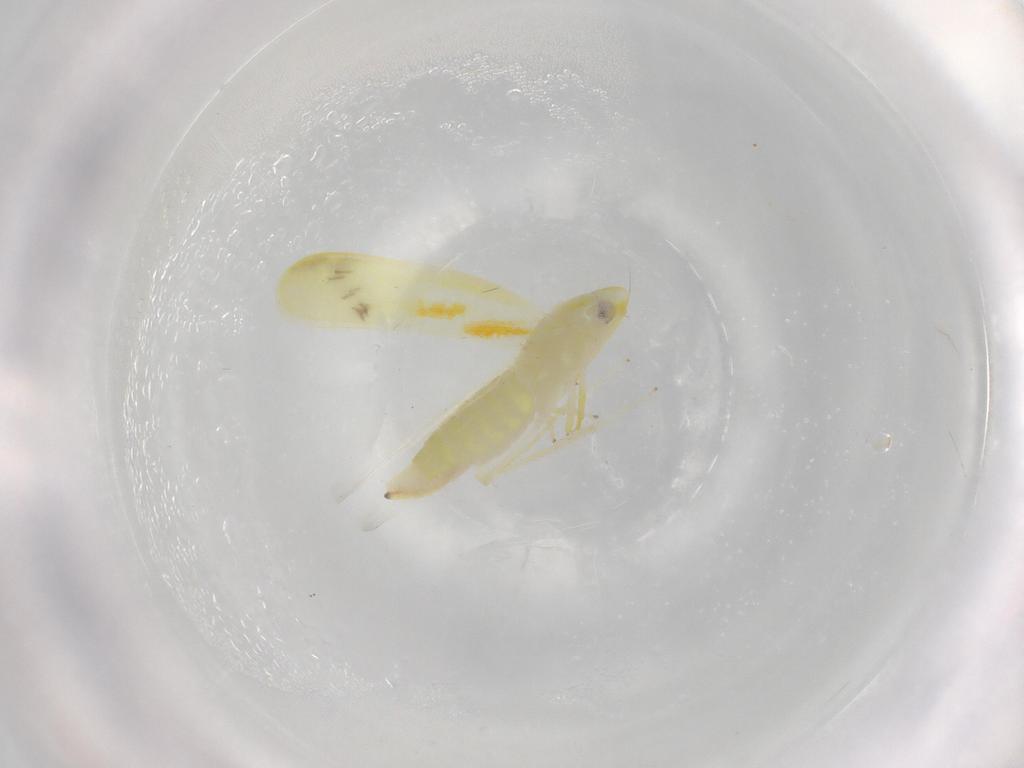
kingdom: Animalia
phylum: Arthropoda
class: Insecta
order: Hemiptera
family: Cicadellidae
